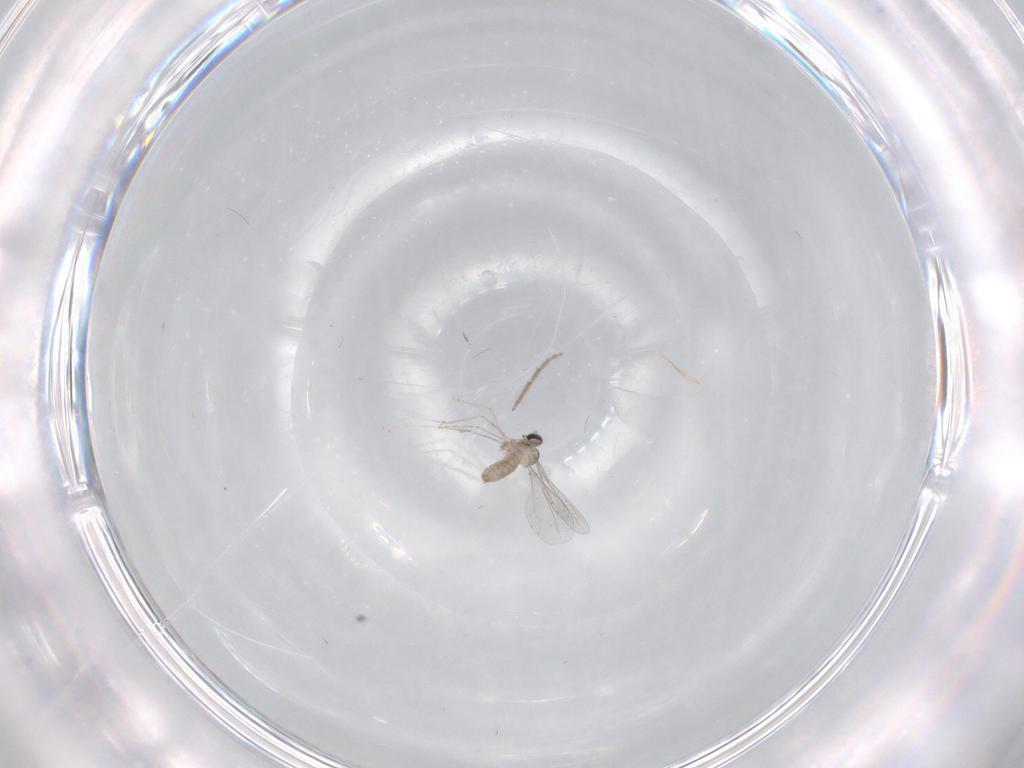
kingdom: Animalia
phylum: Arthropoda
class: Insecta
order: Diptera
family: Chironomidae
